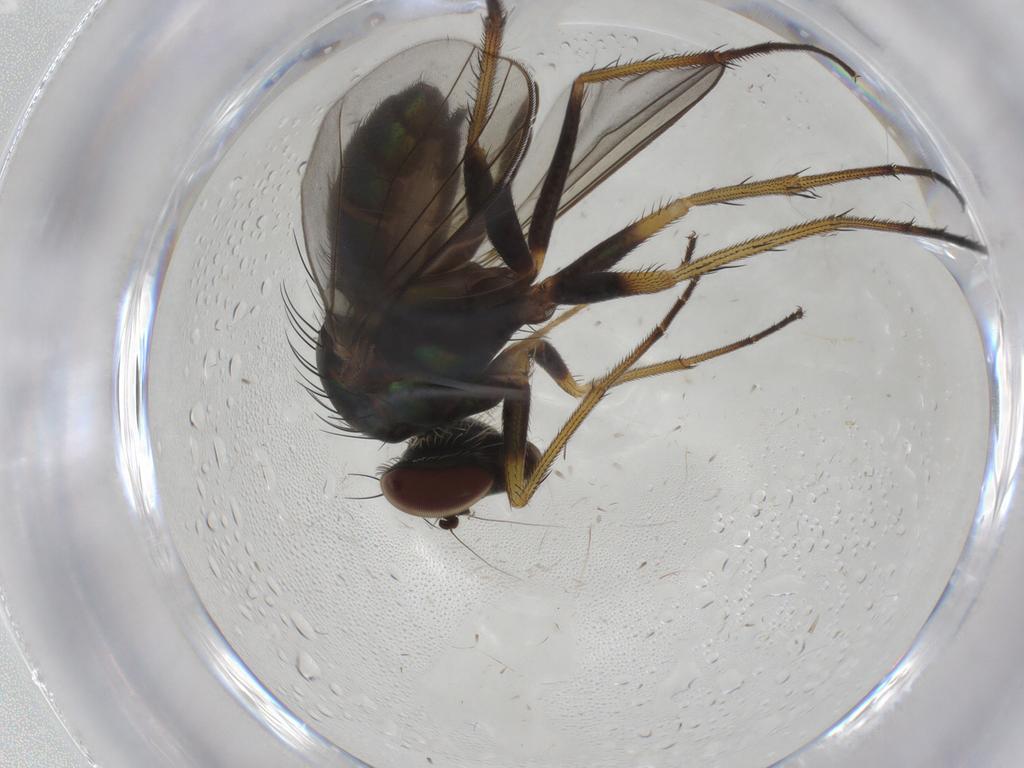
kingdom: Animalia
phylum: Arthropoda
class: Insecta
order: Diptera
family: Dolichopodidae
